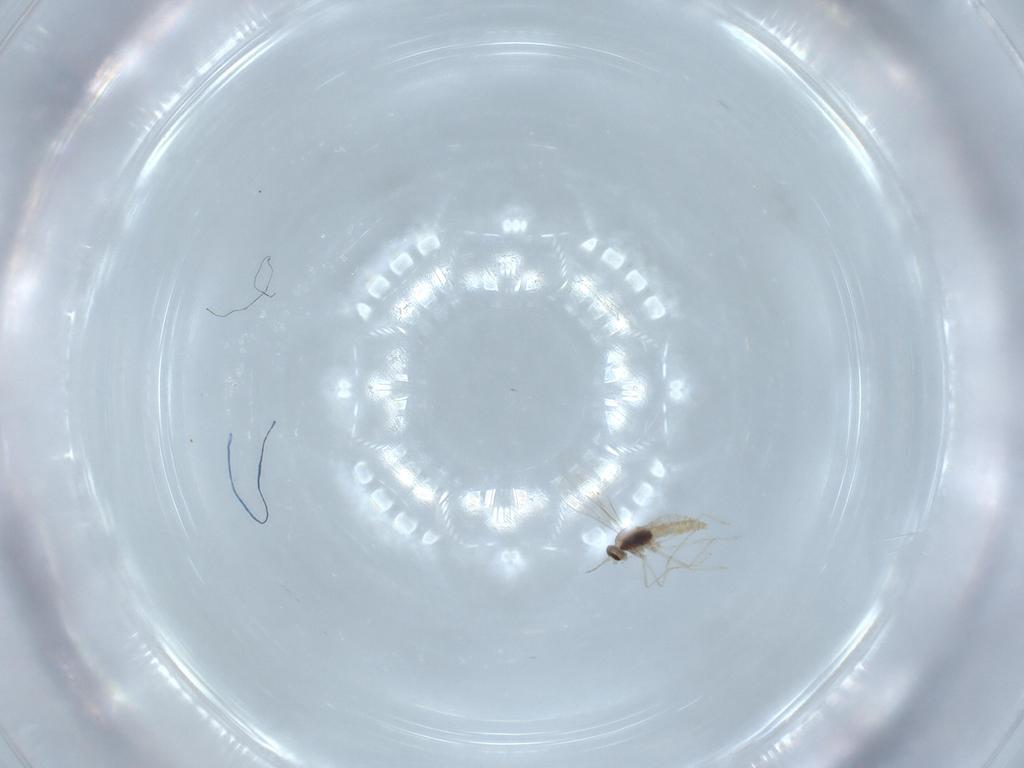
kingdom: Animalia
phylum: Arthropoda
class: Insecta
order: Diptera
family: Cecidomyiidae
